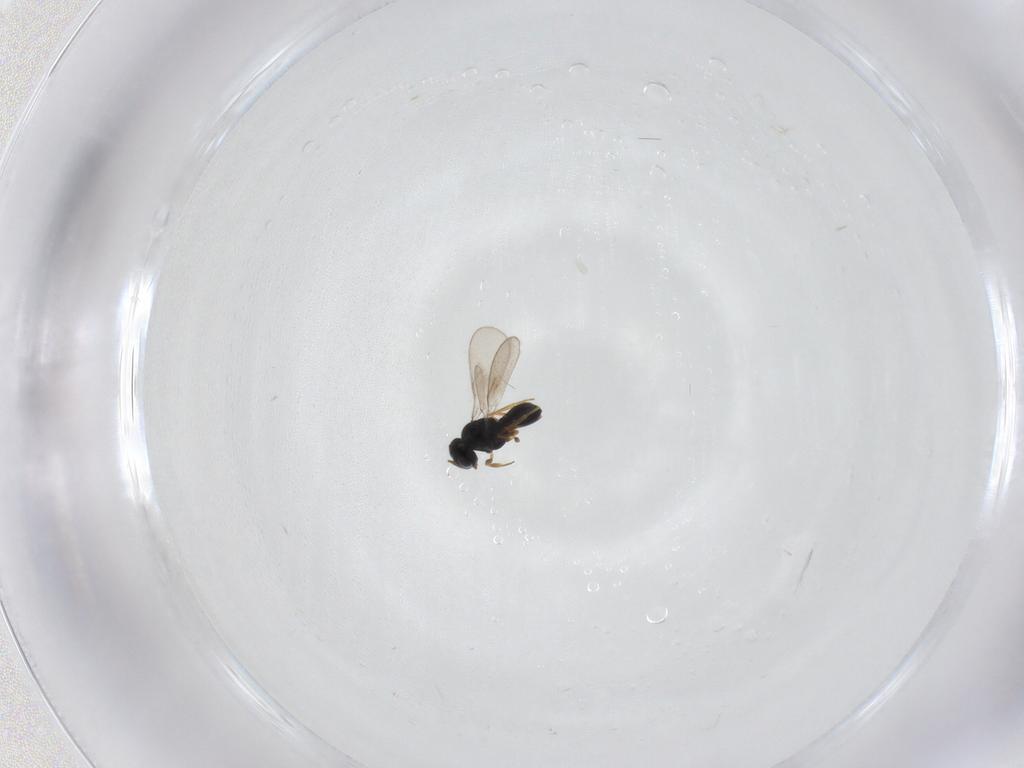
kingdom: Animalia
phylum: Arthropoda
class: Insecta
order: Hymenoptera
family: Scelionidae
